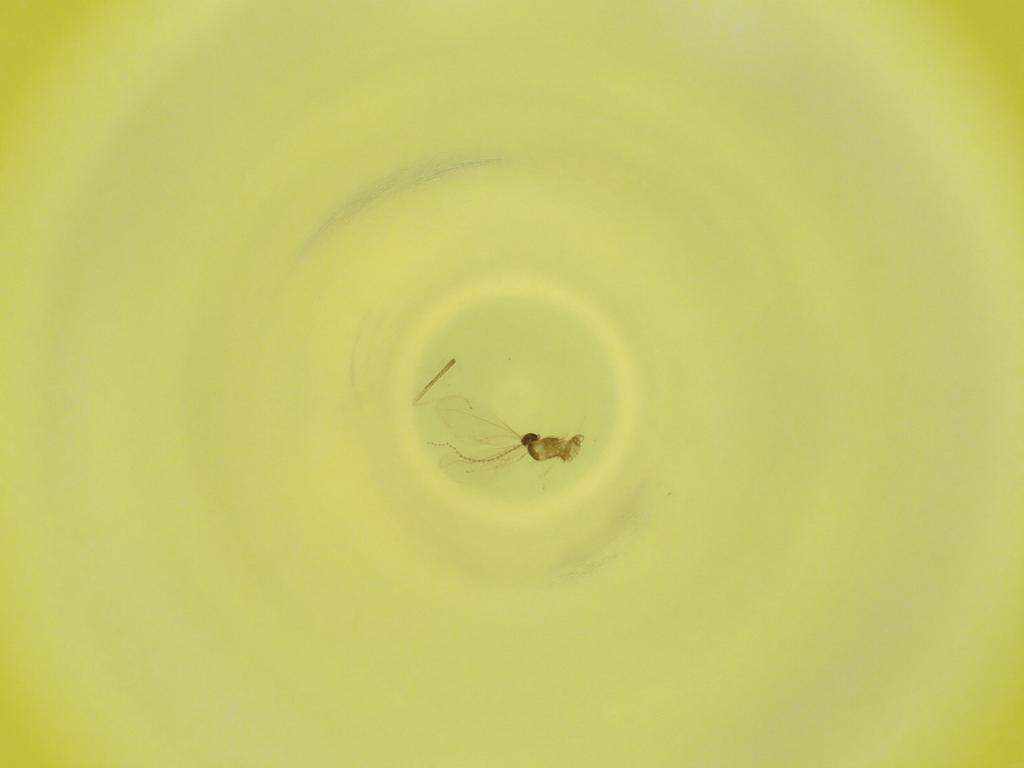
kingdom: Animalia
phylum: Arthropoda
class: Insecta
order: Diptera
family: Cecidomyiidae
